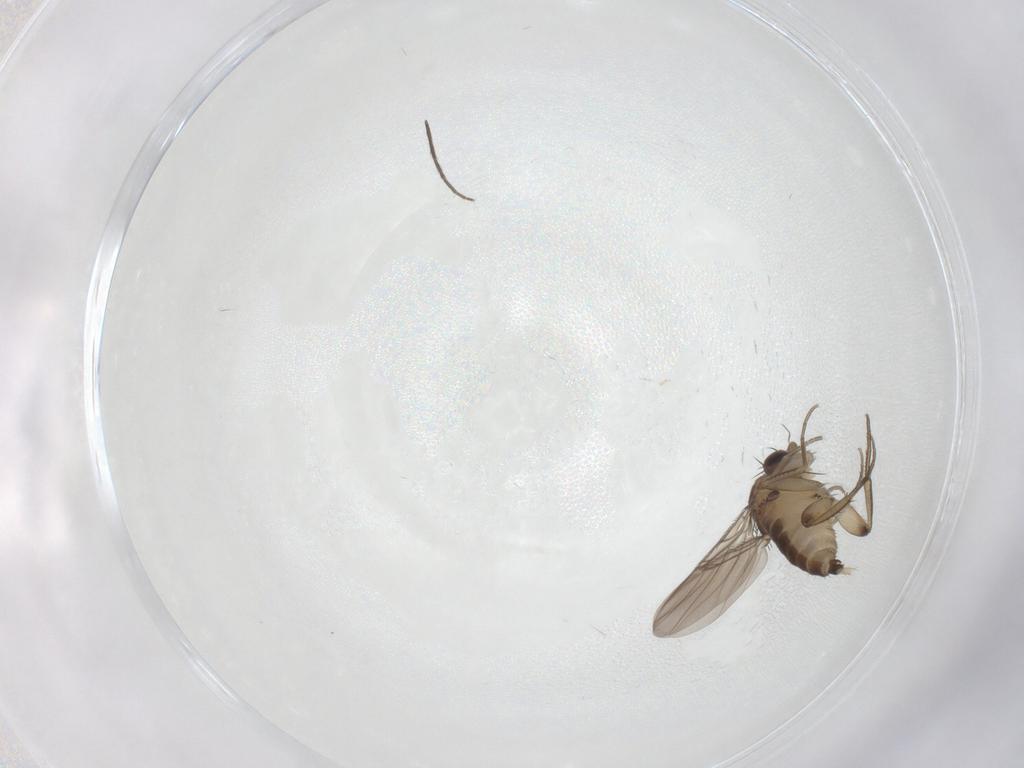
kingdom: Animalia
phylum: Arthropoda
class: Insecta
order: Diptera
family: Chironomidae
